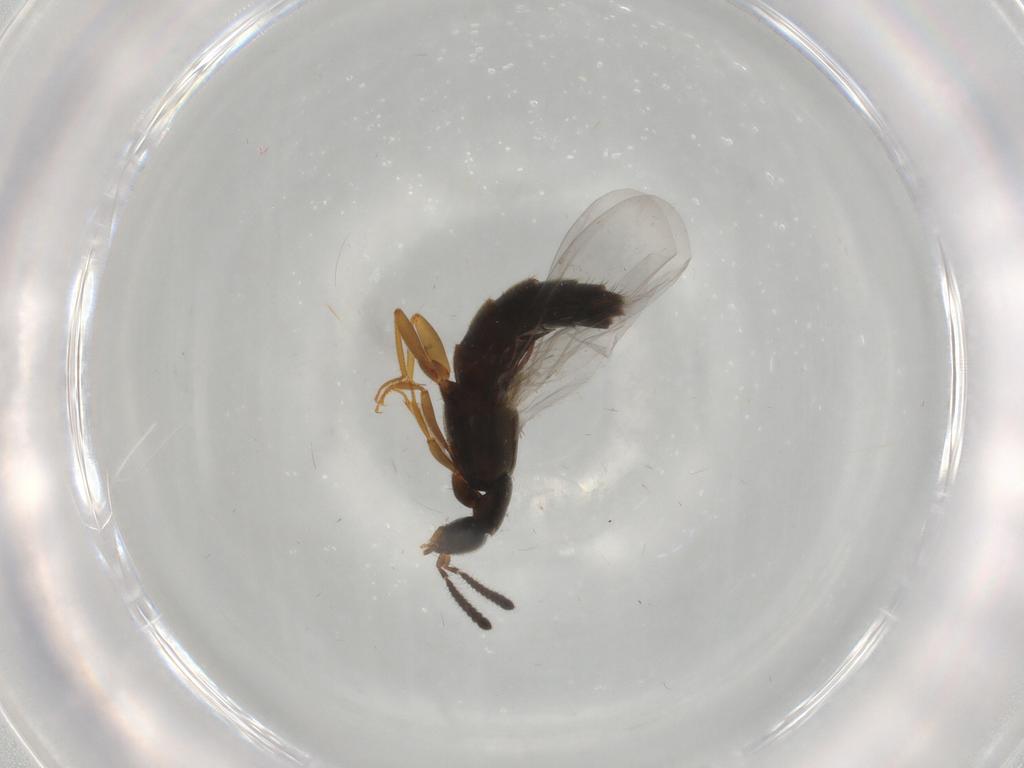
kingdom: Animalia
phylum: Arthropoda
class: Insecta
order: Coleoptera
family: Staphylinidae
